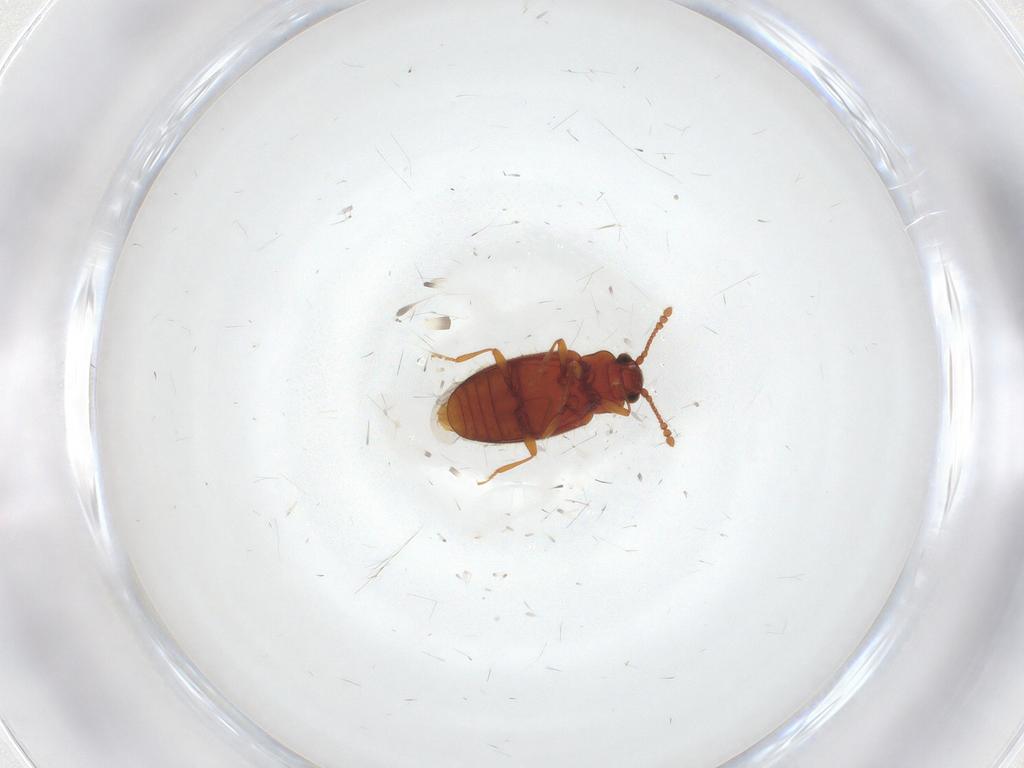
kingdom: Animalia
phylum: Arthropoda
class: Insecta
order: Coleoptera
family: Cryptophagidae
